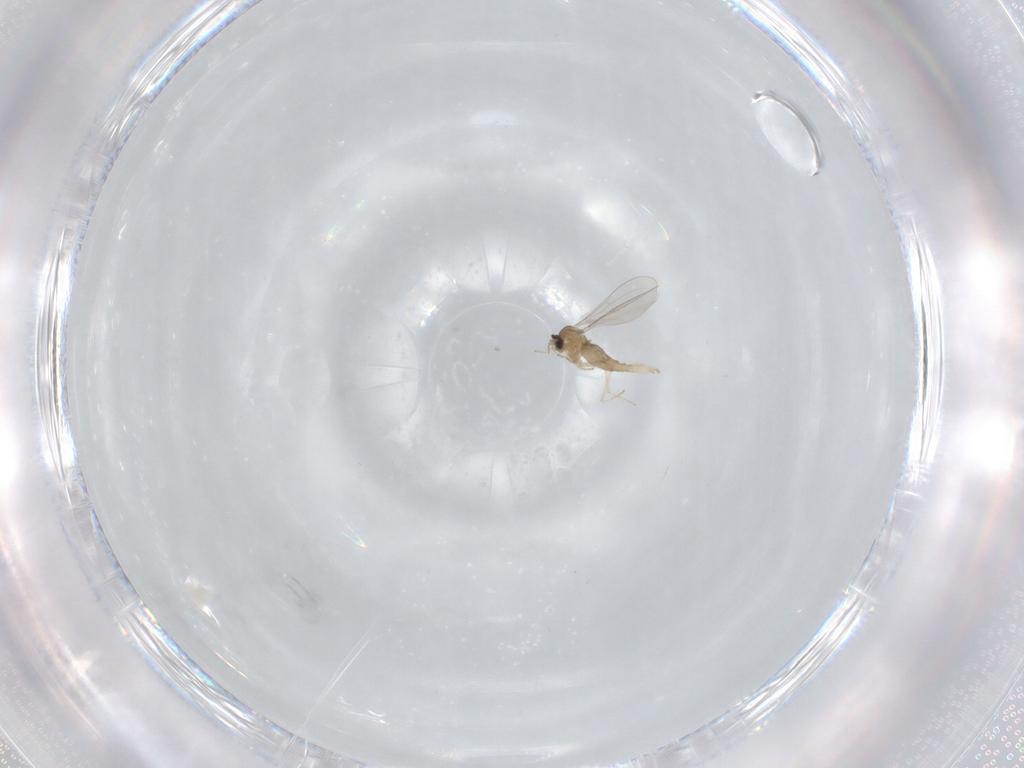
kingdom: Animalia
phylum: Arthropoda
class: Insecta
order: Diptera
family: Cecidomyiidae
